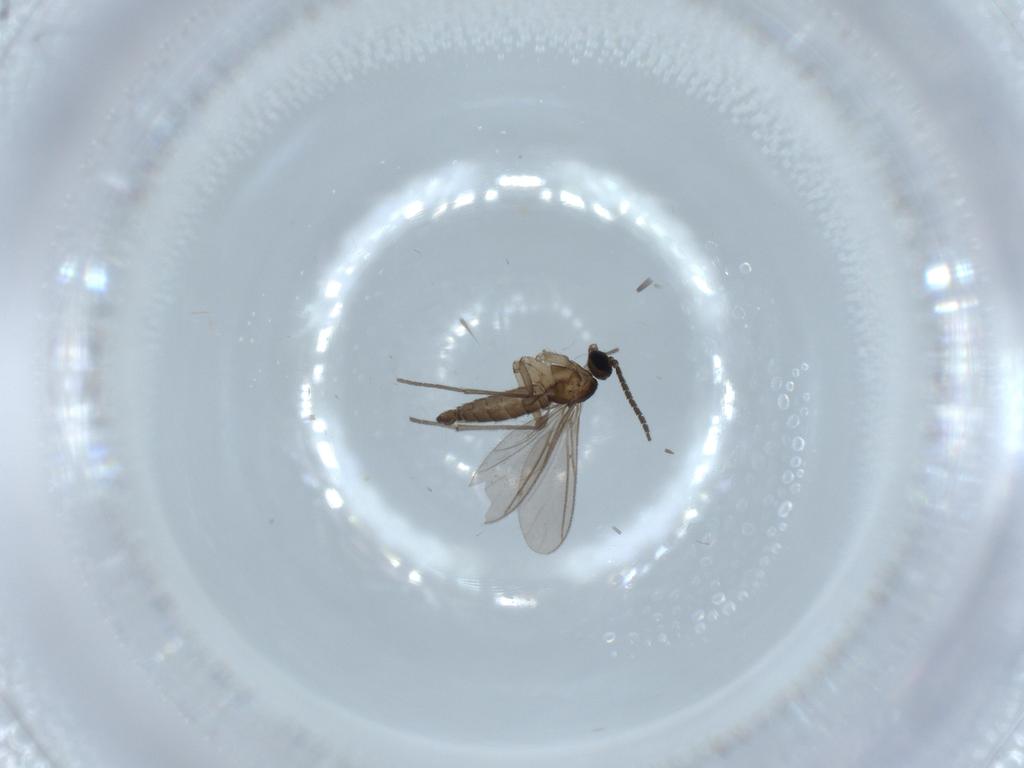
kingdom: Animalia
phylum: Arthropoda
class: Insecta
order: Diptera
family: Sciaridae
